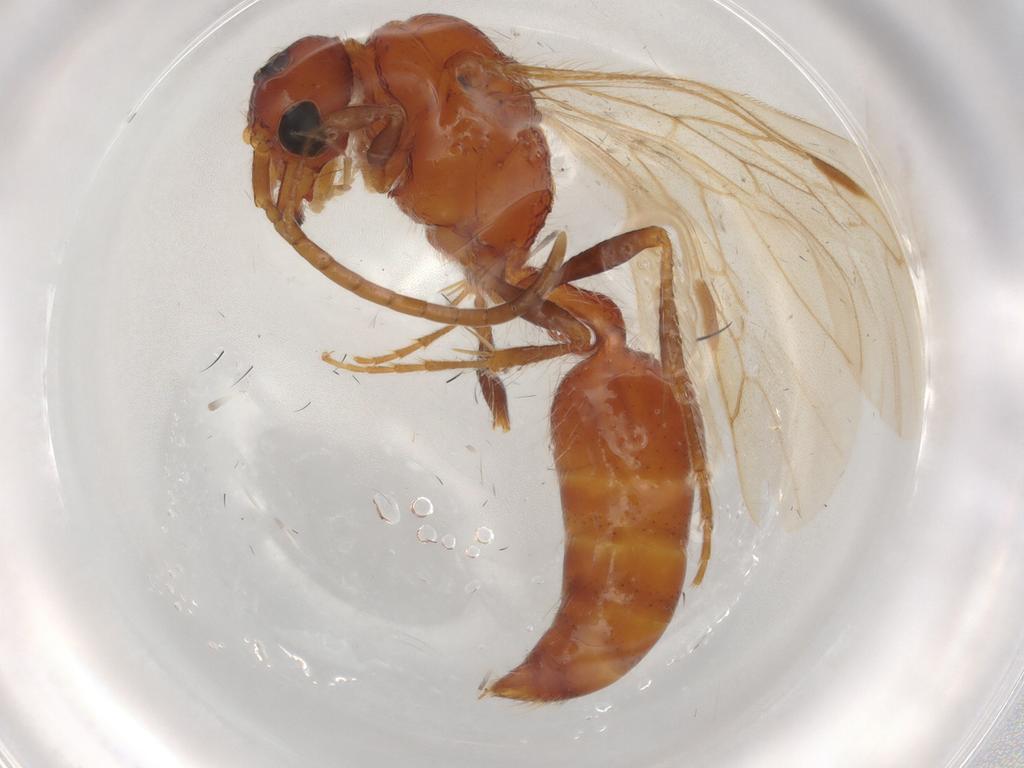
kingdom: Animalia
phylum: Arthropoda
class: Insecta
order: Hymenoptera
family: Mutillidae
